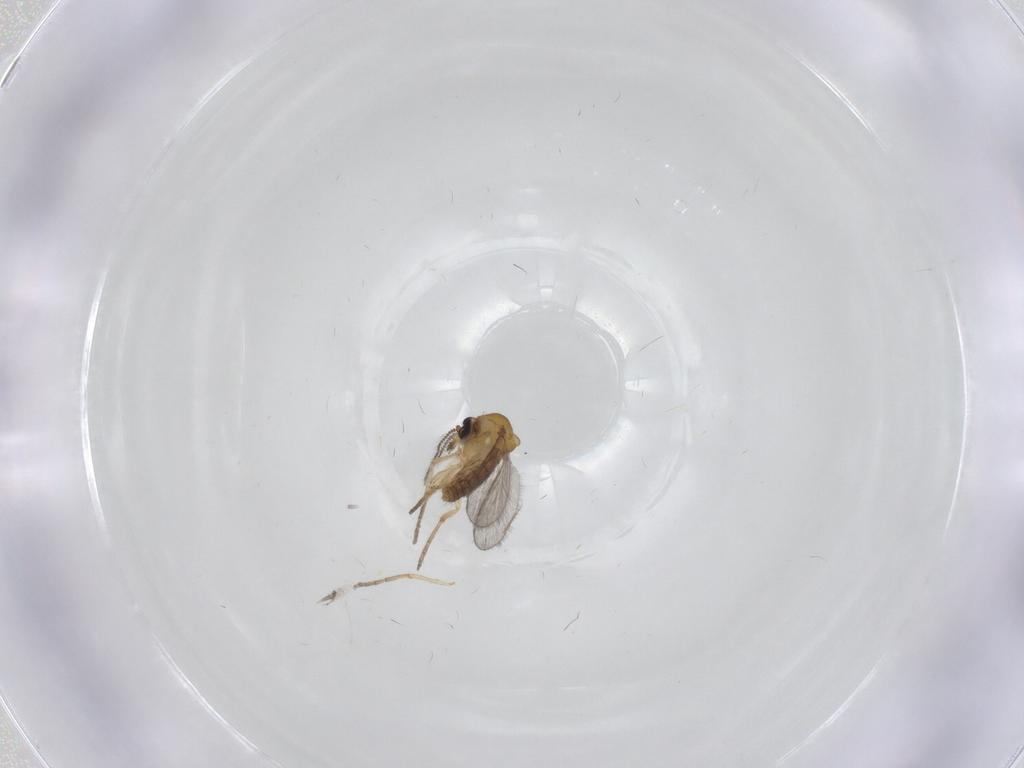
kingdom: Animalia
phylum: Arthropoda
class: Insecta
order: Diptera
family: Ceratopogonidae
